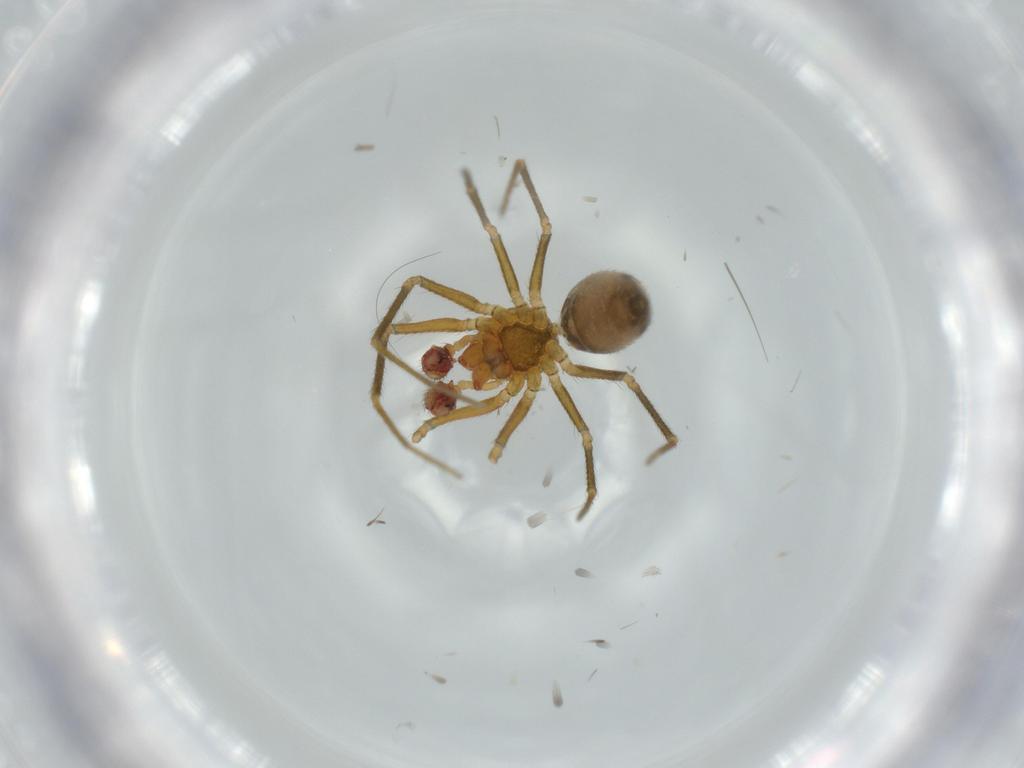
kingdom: Animalia
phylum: Arthropoda
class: Arachnida
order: Araneae
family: Linyphiidae
